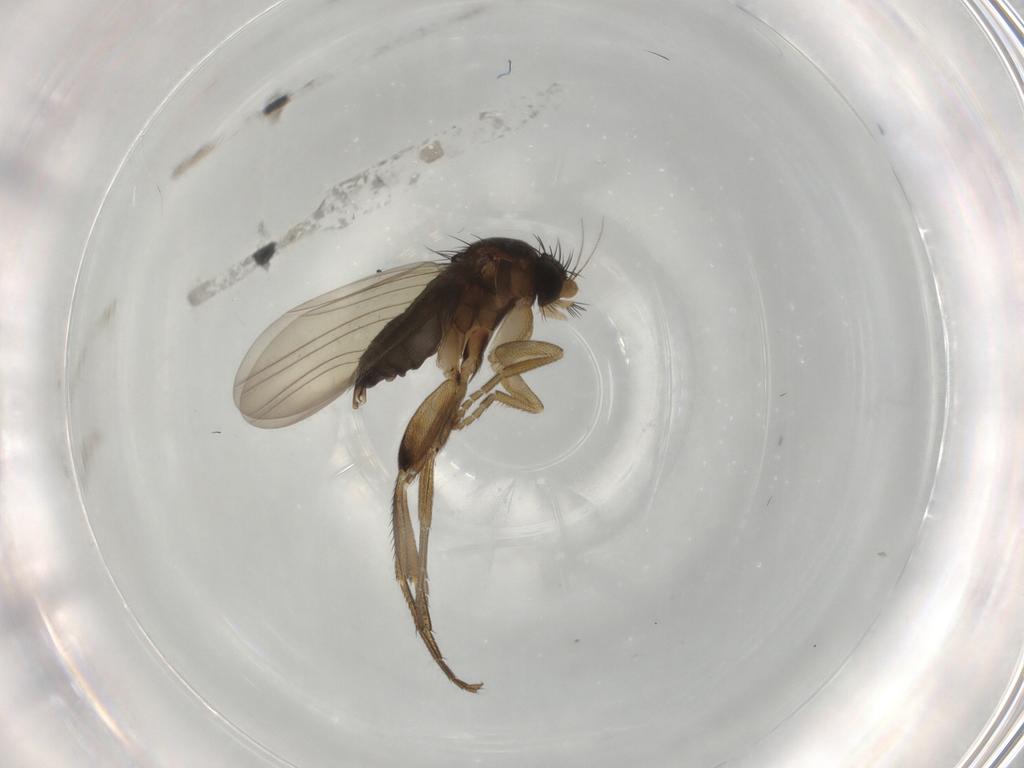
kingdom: Animalia
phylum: Arthropoda
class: Insecta
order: Diptera
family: Phoridae
